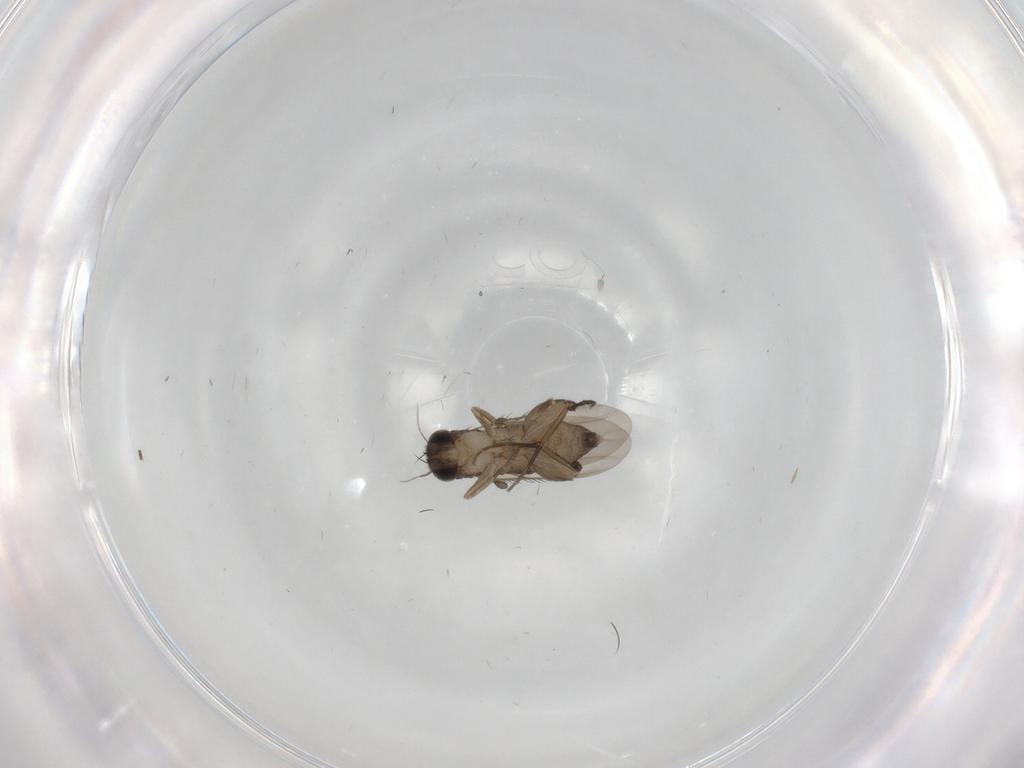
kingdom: Animalia
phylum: Arthropoda
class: Insecta
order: Diptera
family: Phoridae
